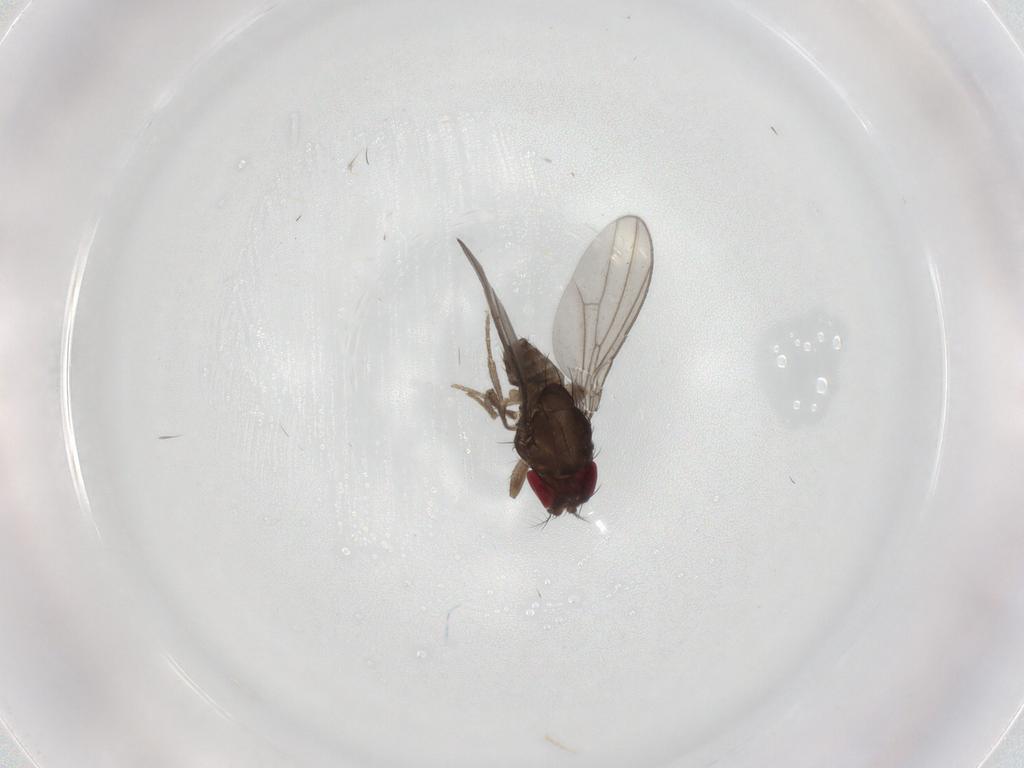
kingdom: Animalia
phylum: Arthropoda
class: Insecta
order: Diptera
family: Drosophilidae
